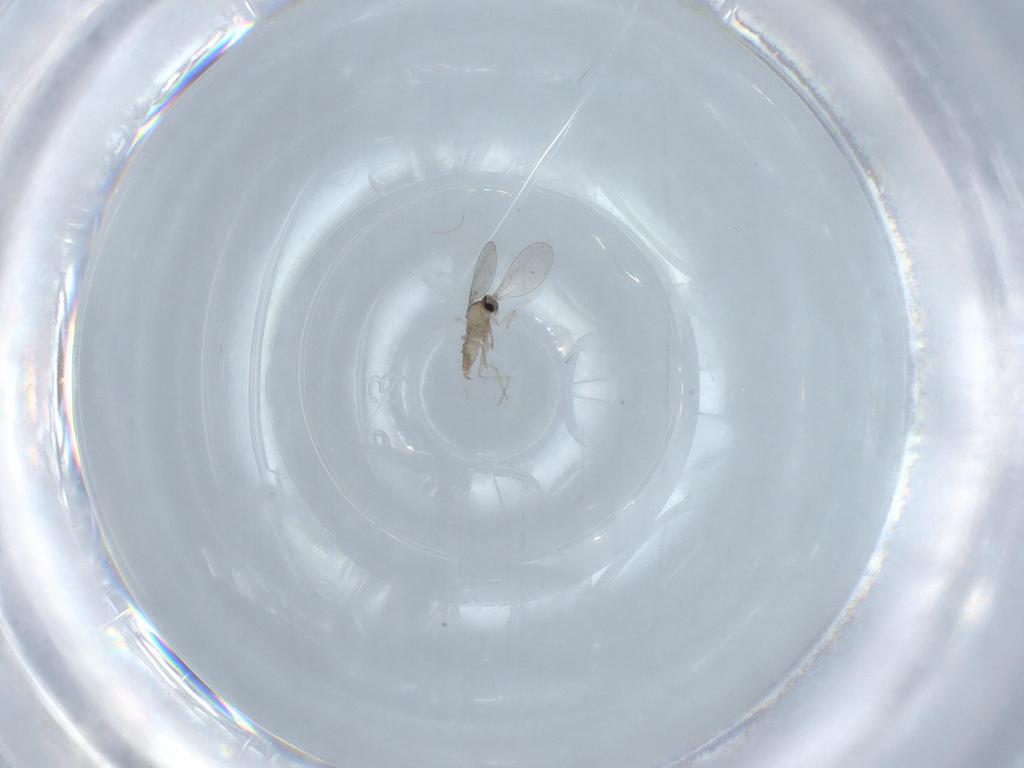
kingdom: Animalia
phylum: Arthropoda
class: Insecta
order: Diptera
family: Cecidomyiidae
